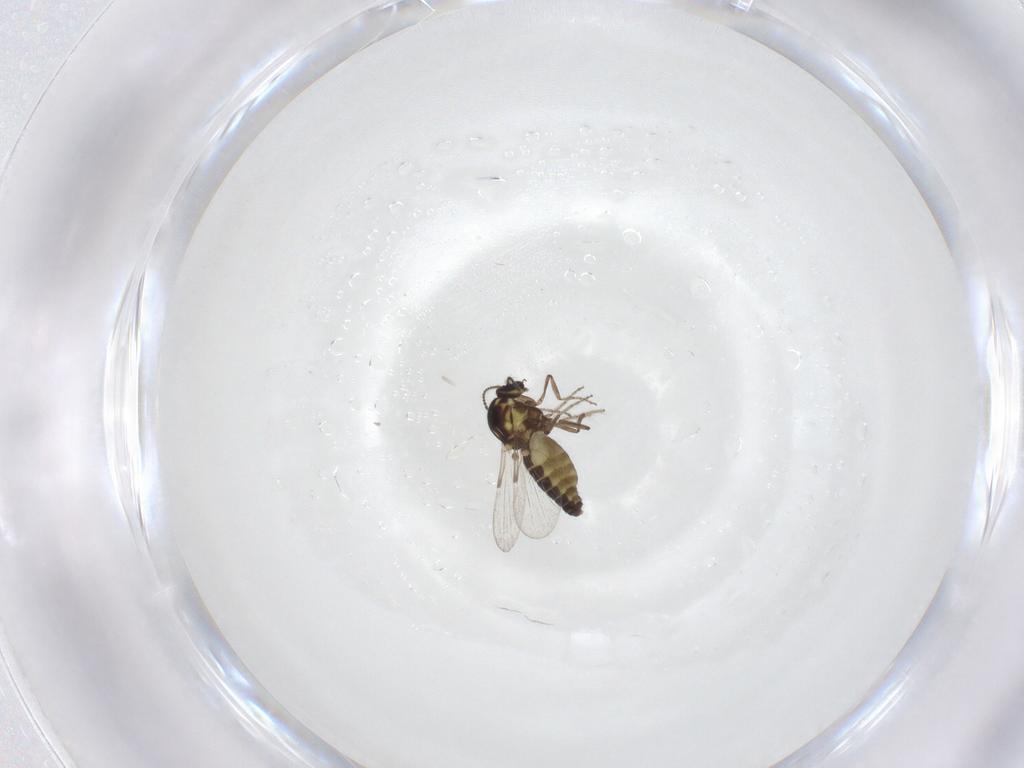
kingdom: Animalia
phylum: Arthropoda
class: Insecta
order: Diptera
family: Ceratopogonidae
